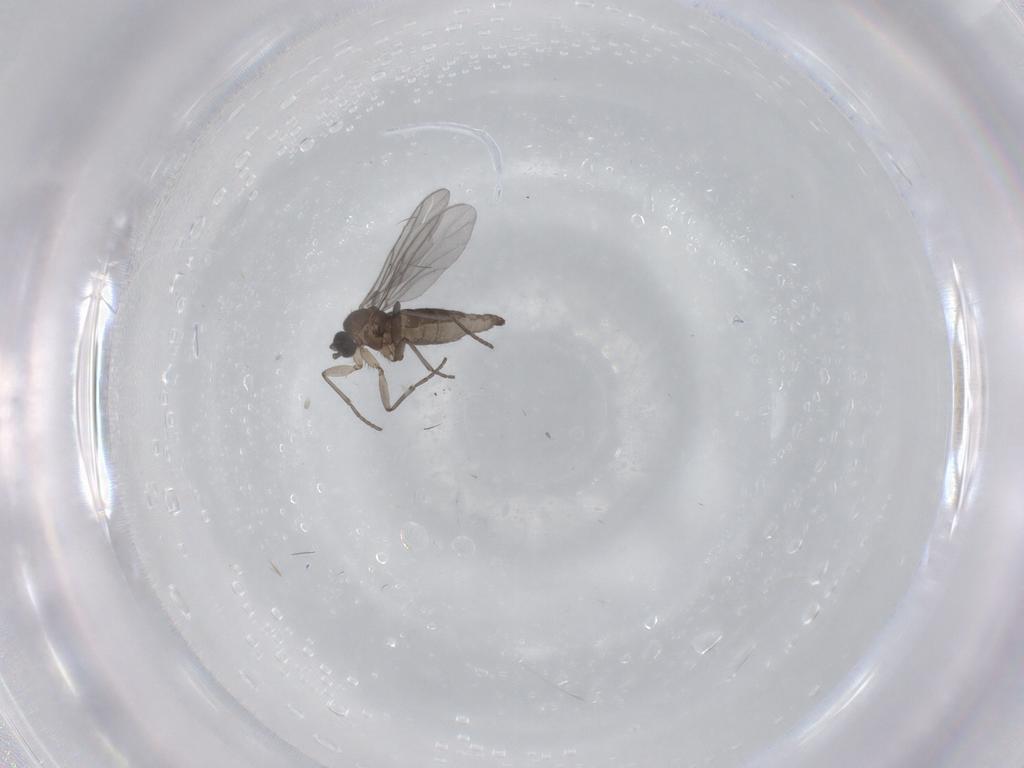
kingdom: Animalia
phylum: Arthropoda
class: Insecta
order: Diptera
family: Sciaridae
